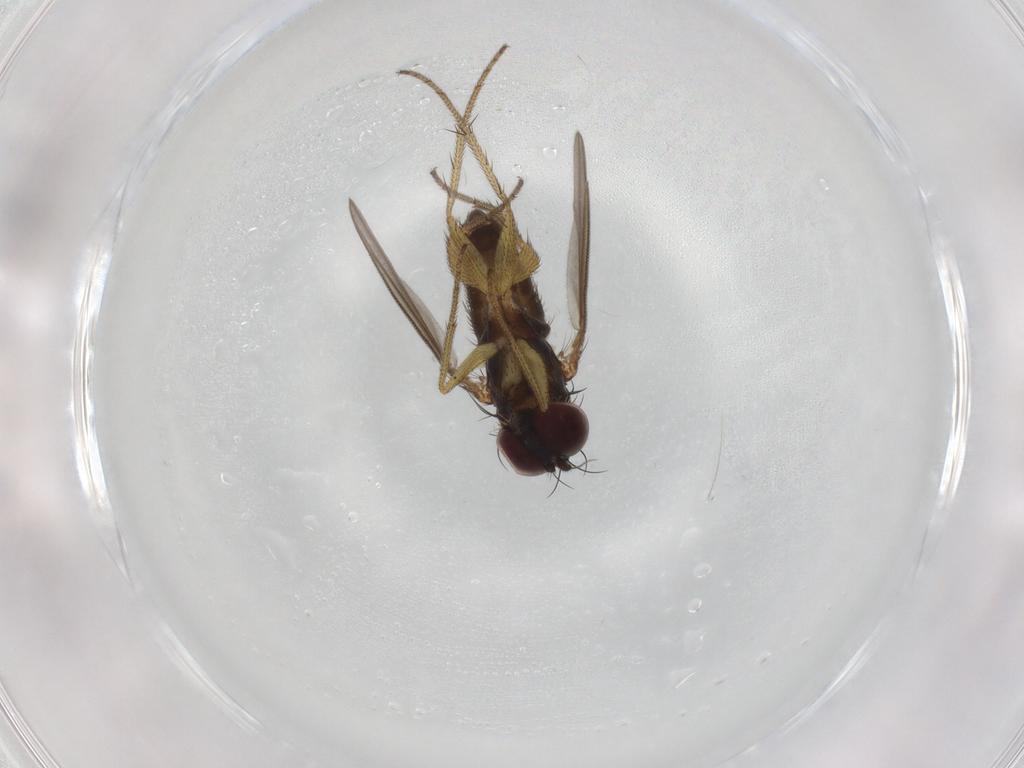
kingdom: Animalia
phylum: Arthropoda
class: Insecta
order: Diptera
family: Dolichopodidae
